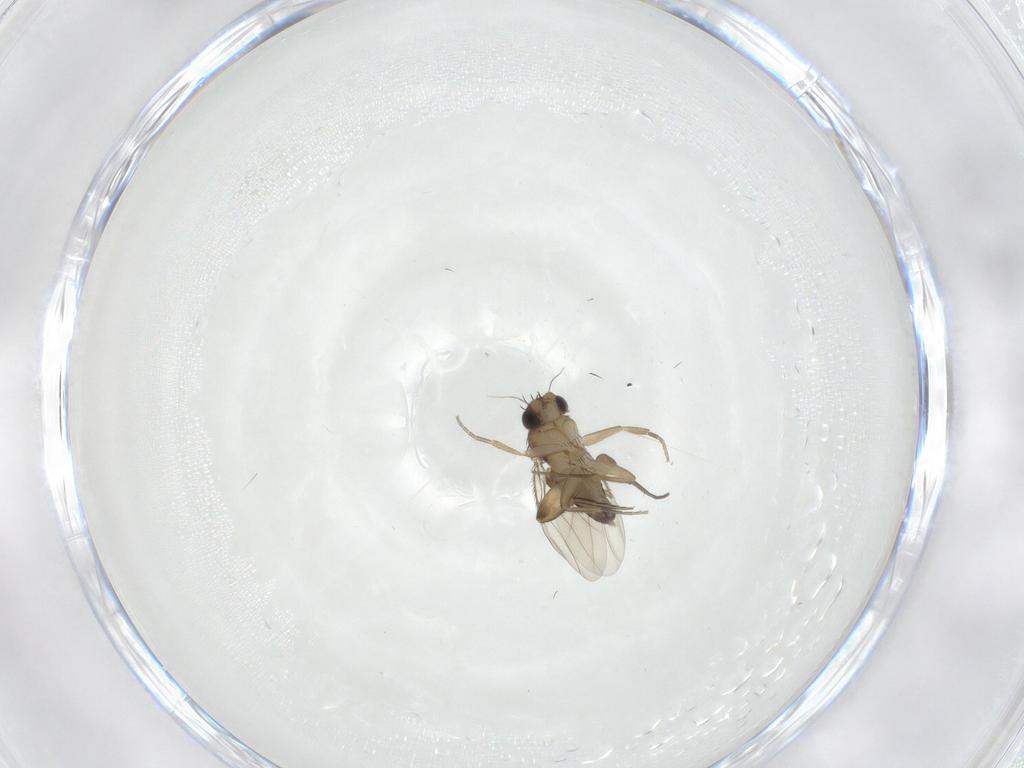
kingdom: Animalia
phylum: Arthropoda
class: Insecta
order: Diptera
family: Phoridae
